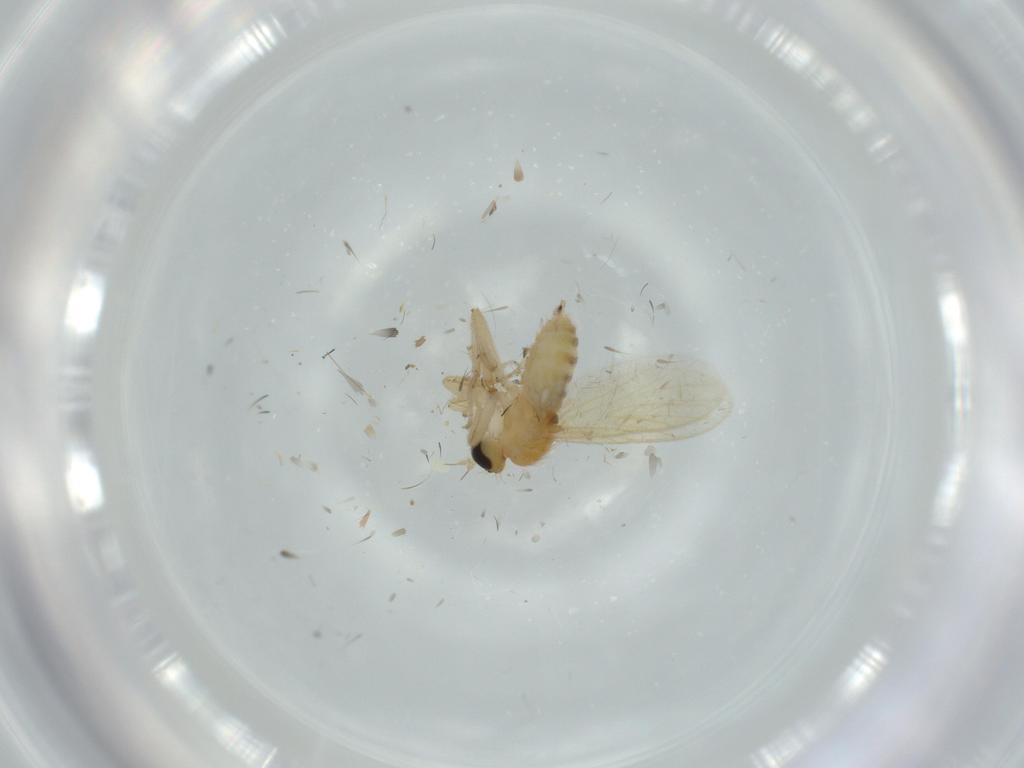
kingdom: Animalia
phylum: Arthropoda
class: Insecta
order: Diptera
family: Hybotidae
